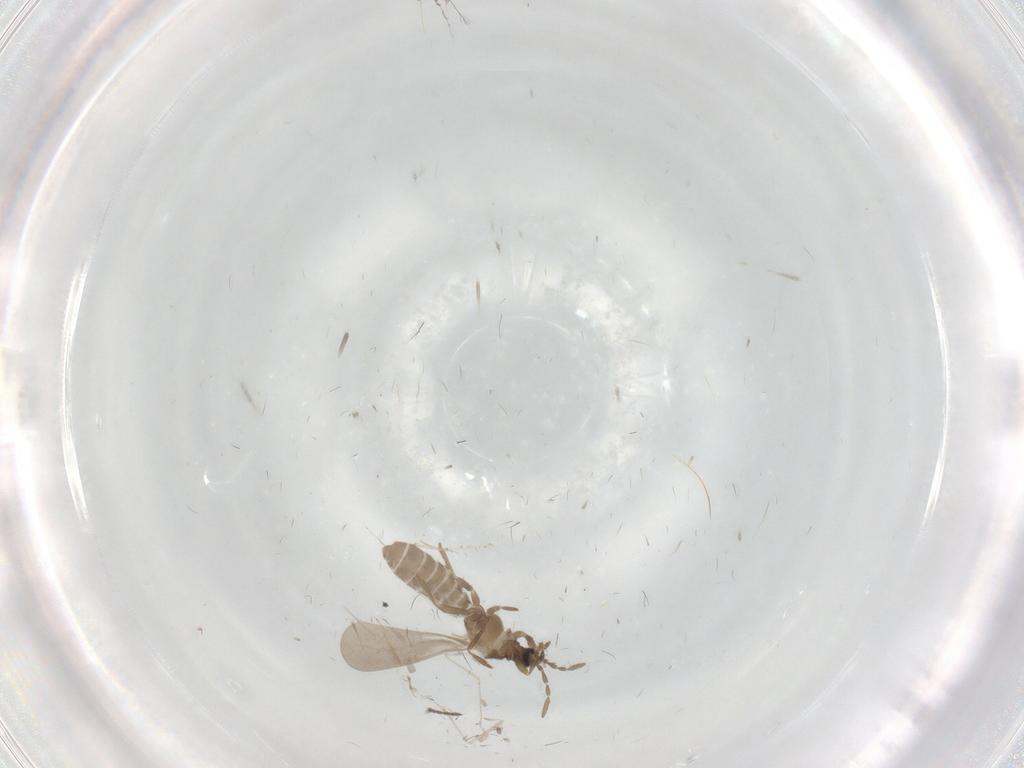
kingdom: Animalia
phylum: Arthropoda
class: Insecta
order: Hemiptera
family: Enicocephalidae
